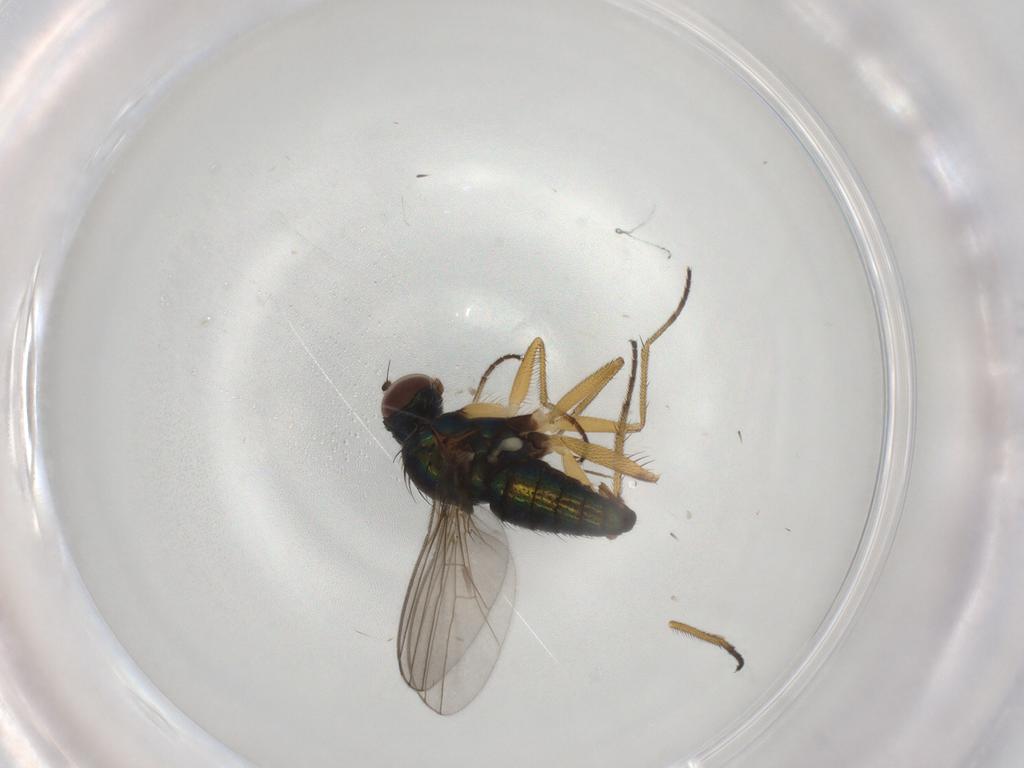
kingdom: Animalia
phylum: Arthropoda
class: Insecta
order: Diptera
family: Dolichopodidae
